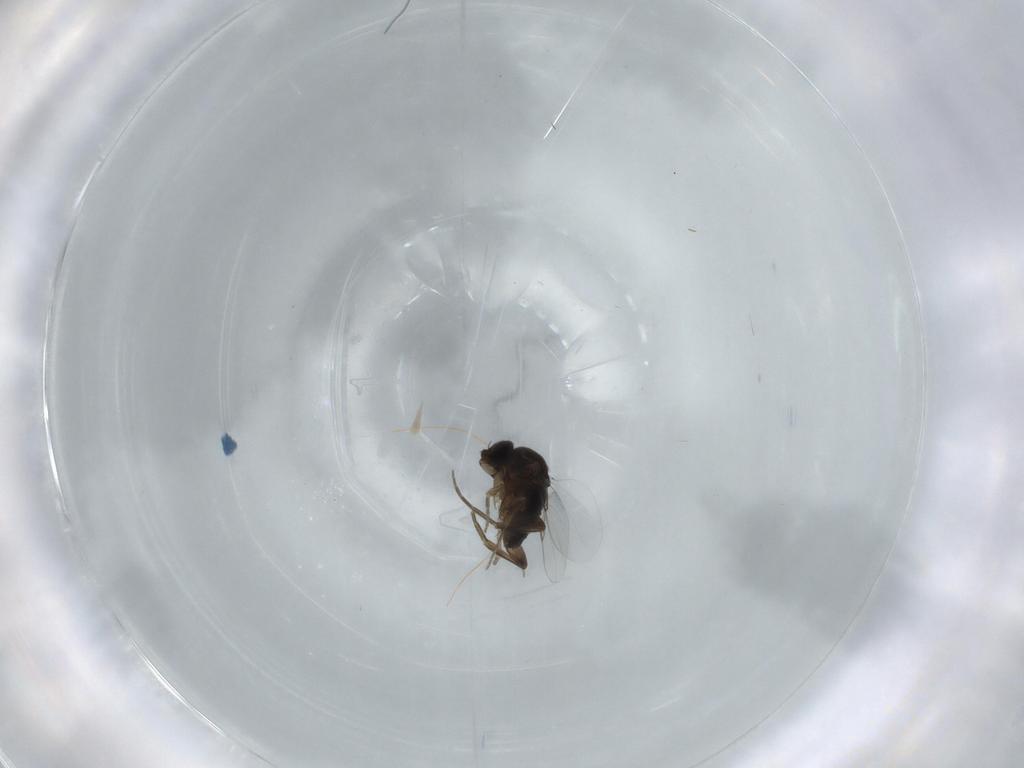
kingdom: Animalia
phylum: Arthropoda
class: Insecta
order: Diptera
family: Phoridae
